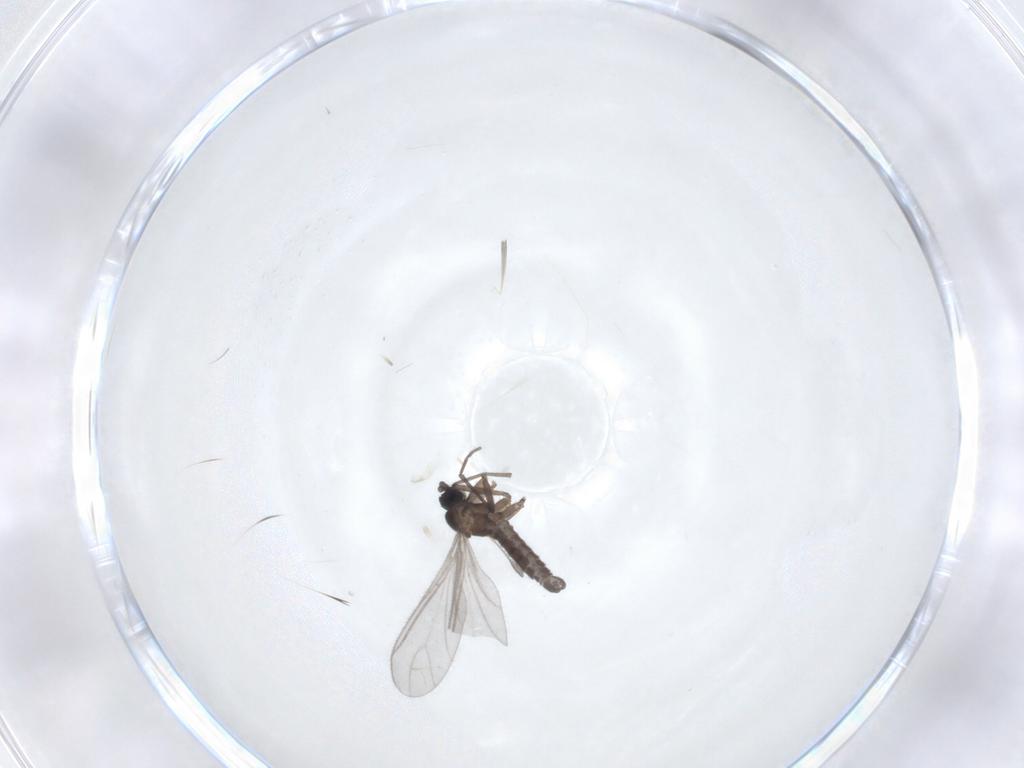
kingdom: Animalia
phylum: Arthropoda
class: Insecta
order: Diptera
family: Sciaridae
